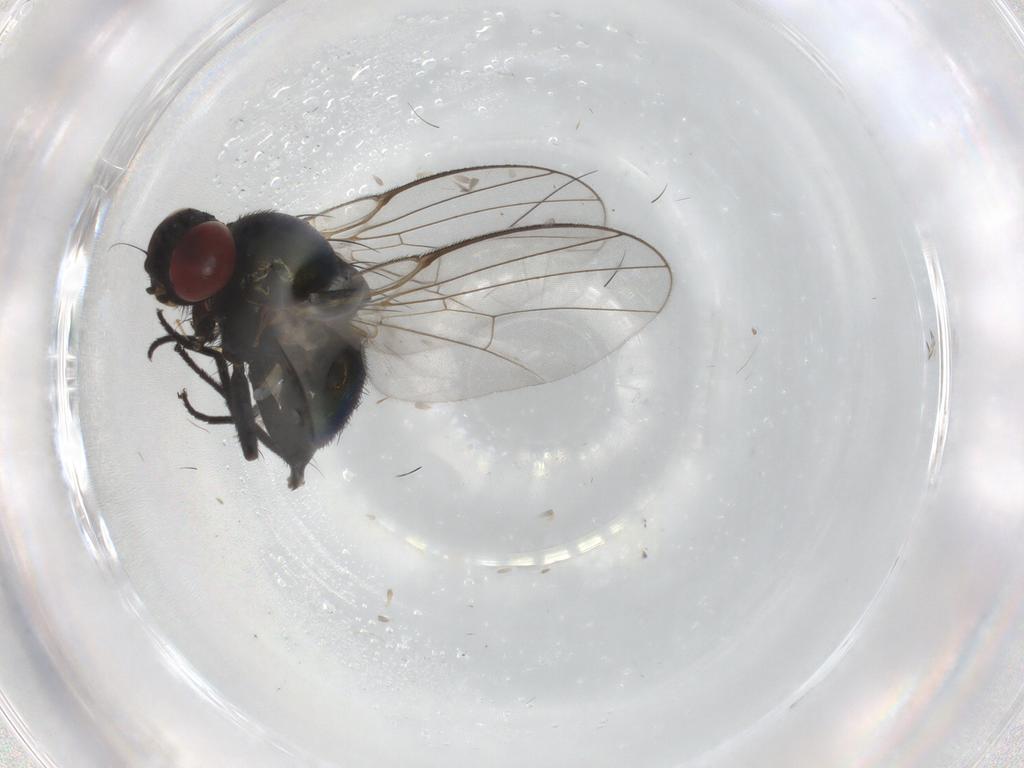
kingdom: Animalia
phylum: Arthropoda
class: Insecta
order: Diptera
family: Agromyzidae
